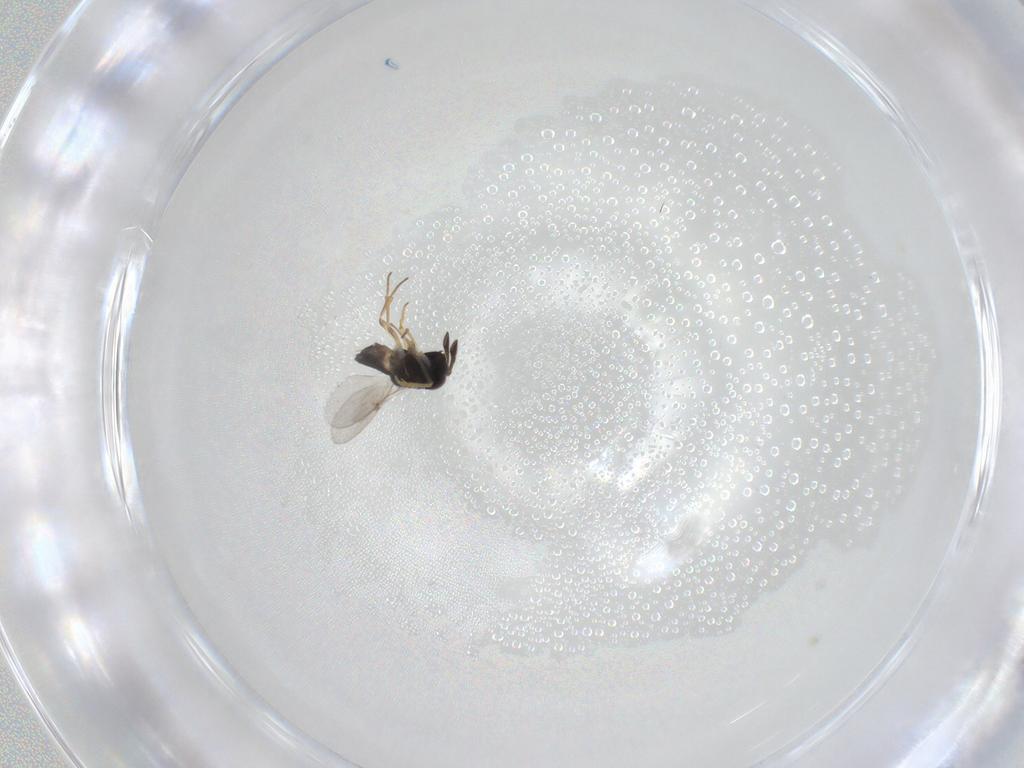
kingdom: Animalia
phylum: Arthropoda
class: Insecta
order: Hymenoptera
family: Encyrtidae
